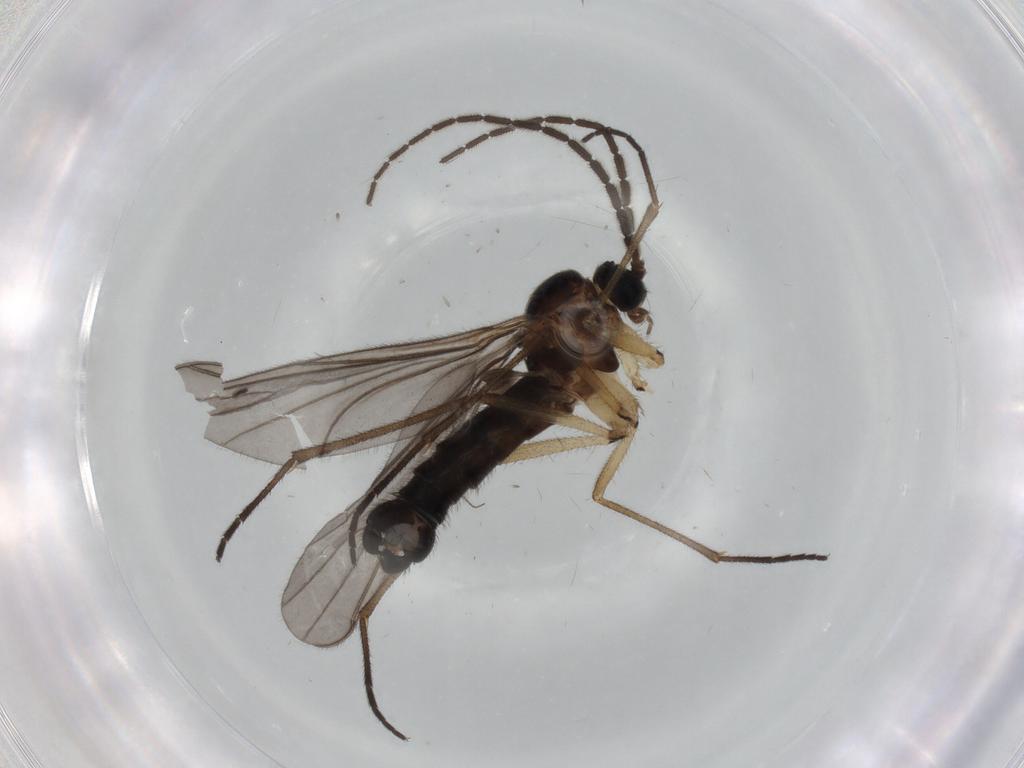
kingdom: Animalia
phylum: Arthropoda
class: Insecta
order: Diptera
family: Sciaridae
